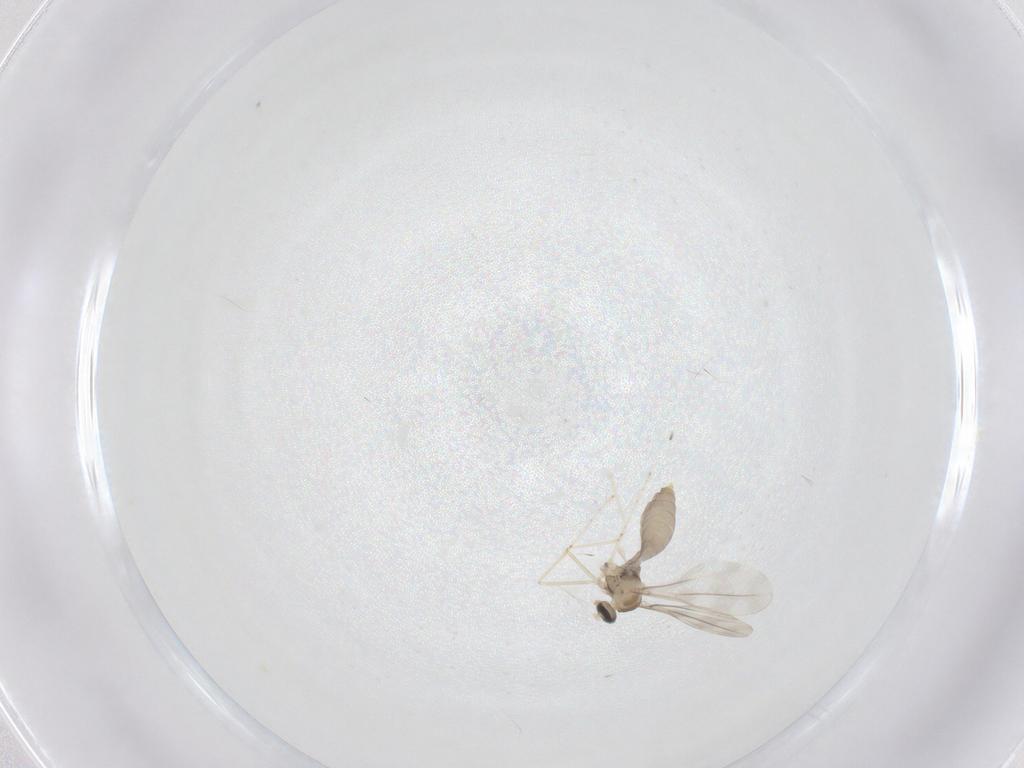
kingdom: Animalia
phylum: Arthropoda
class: Insecta
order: Diptera
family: Cecidomyiidae
